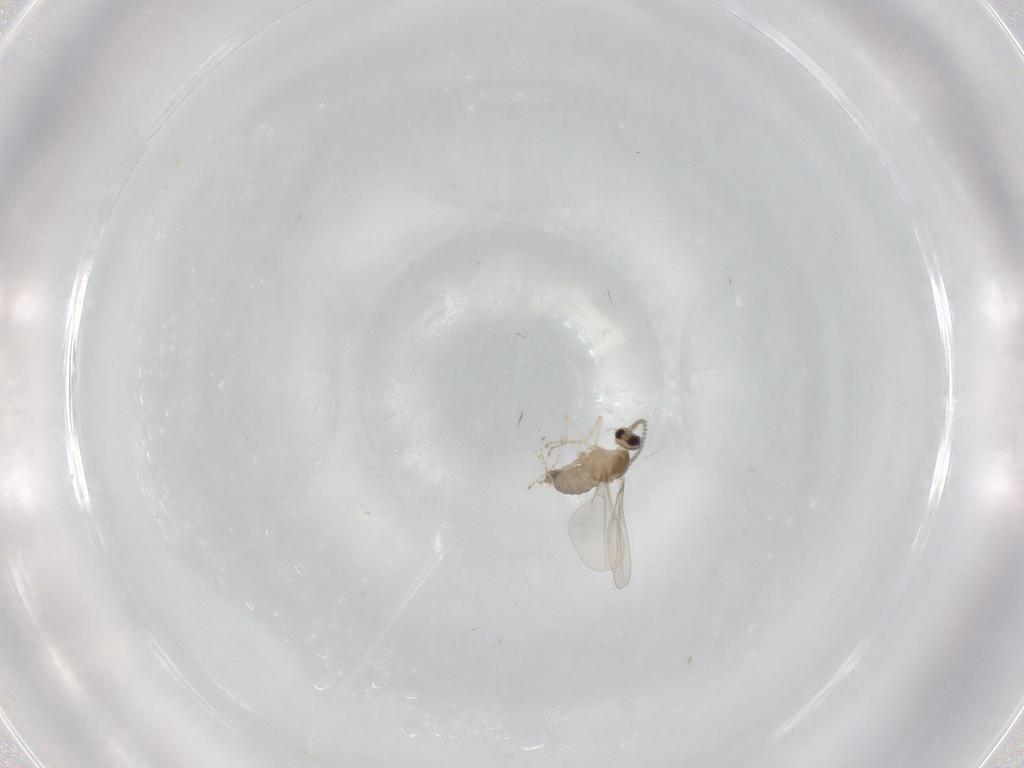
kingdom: Animalia
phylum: Arthropoda
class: Insecta
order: Diptera
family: Cecidomyiidae
